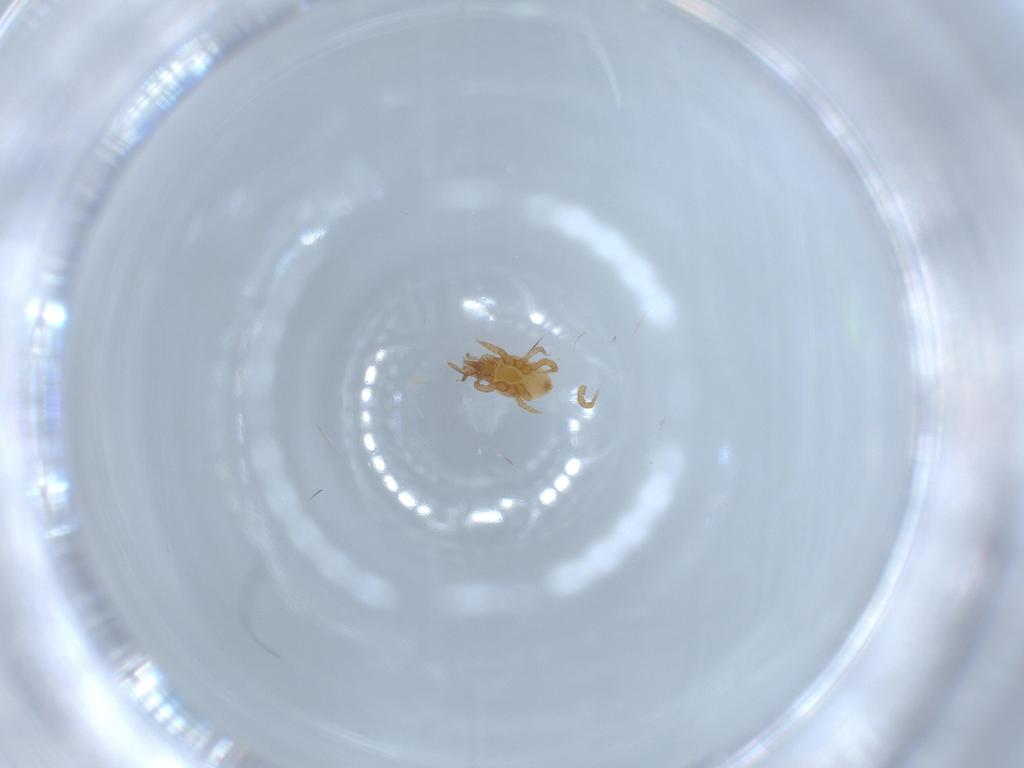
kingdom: Animalia
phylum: Arthropoda
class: Arachnida
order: Mesostigmata
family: Parasitidae
